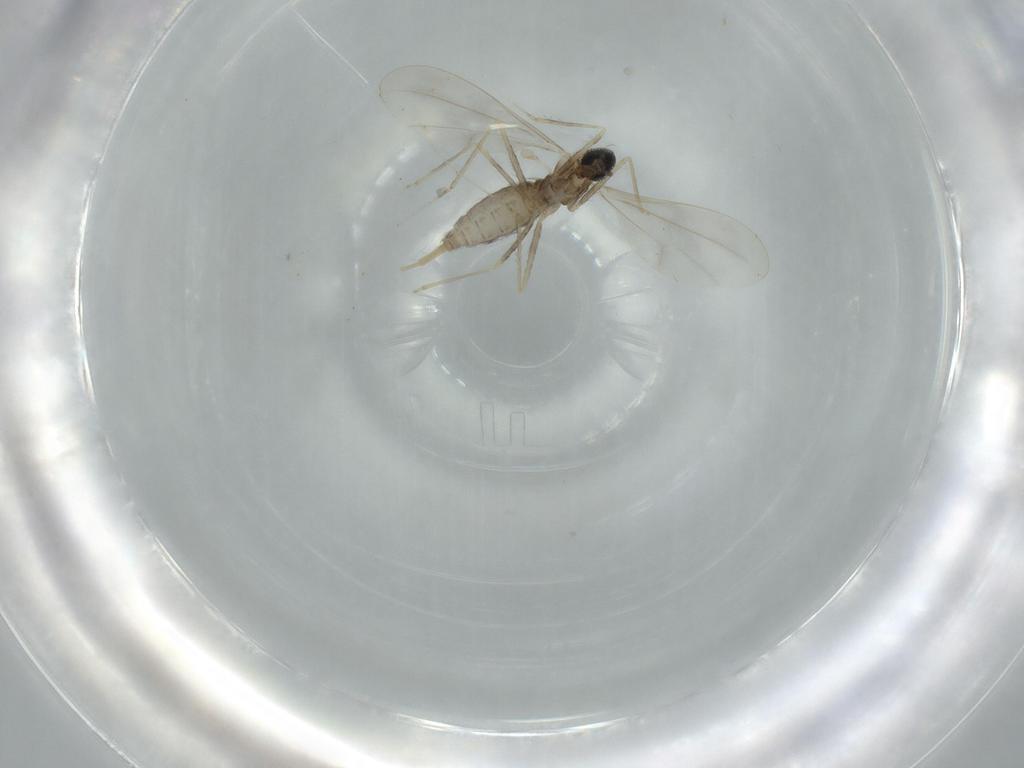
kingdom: Animalia
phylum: Arthropoda
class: Insecta
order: Diptera
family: Cecidomyiidae
